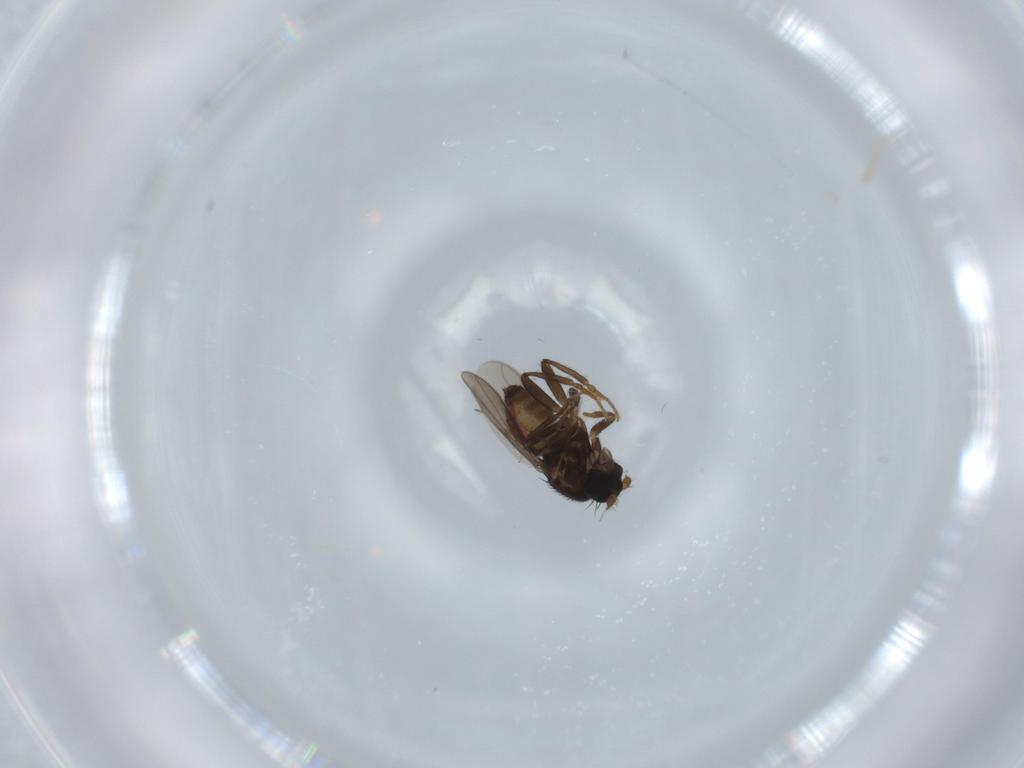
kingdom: Animalia
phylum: Arthropoda
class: Insecta
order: Diptera
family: Sphaeroceridae
